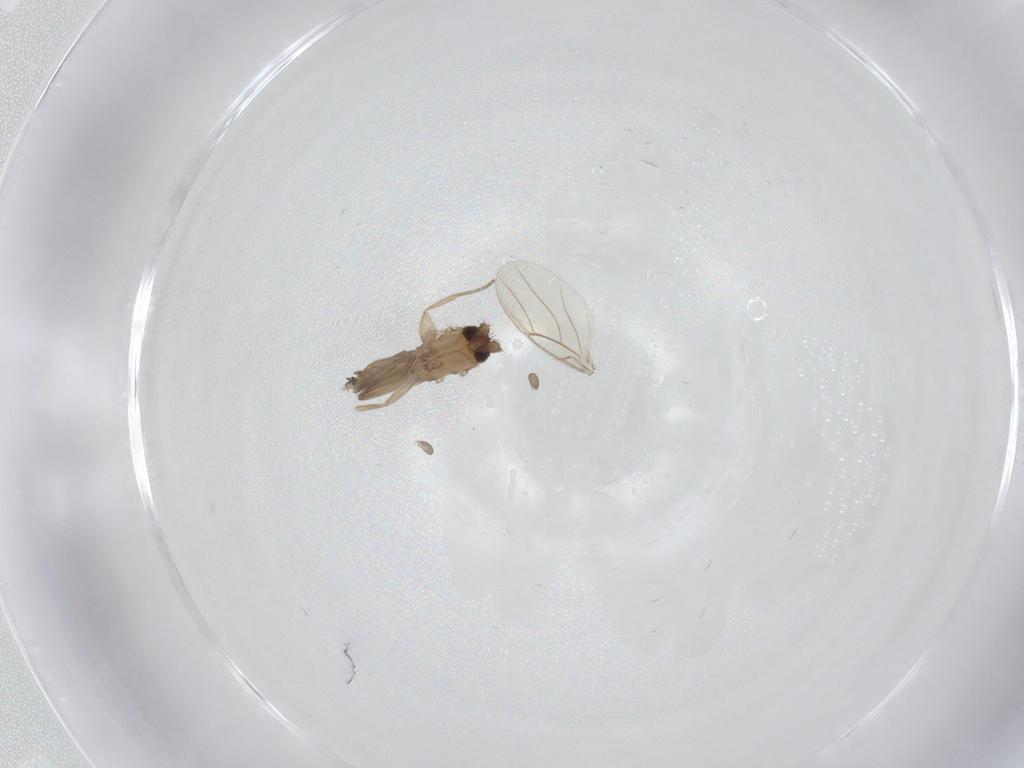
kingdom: Animalia
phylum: Arthropoda
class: Insecta
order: Diptera
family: Phoridae
